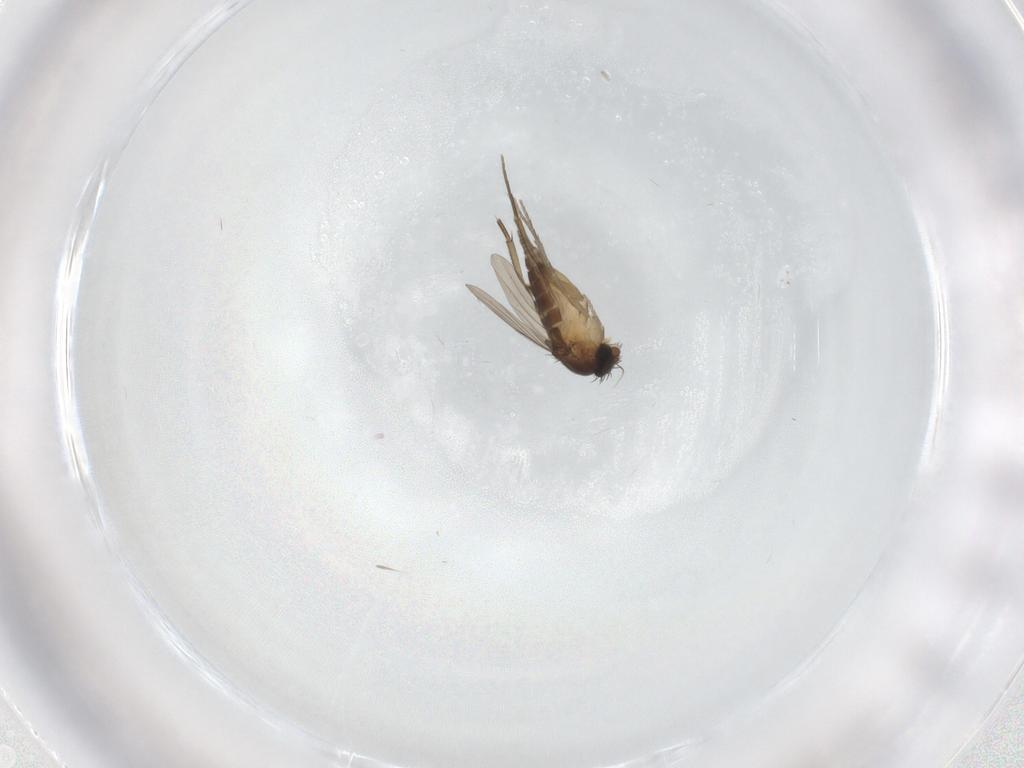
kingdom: Animalia
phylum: Arthropoda
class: Insecta
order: Diptera
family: Phoridae
